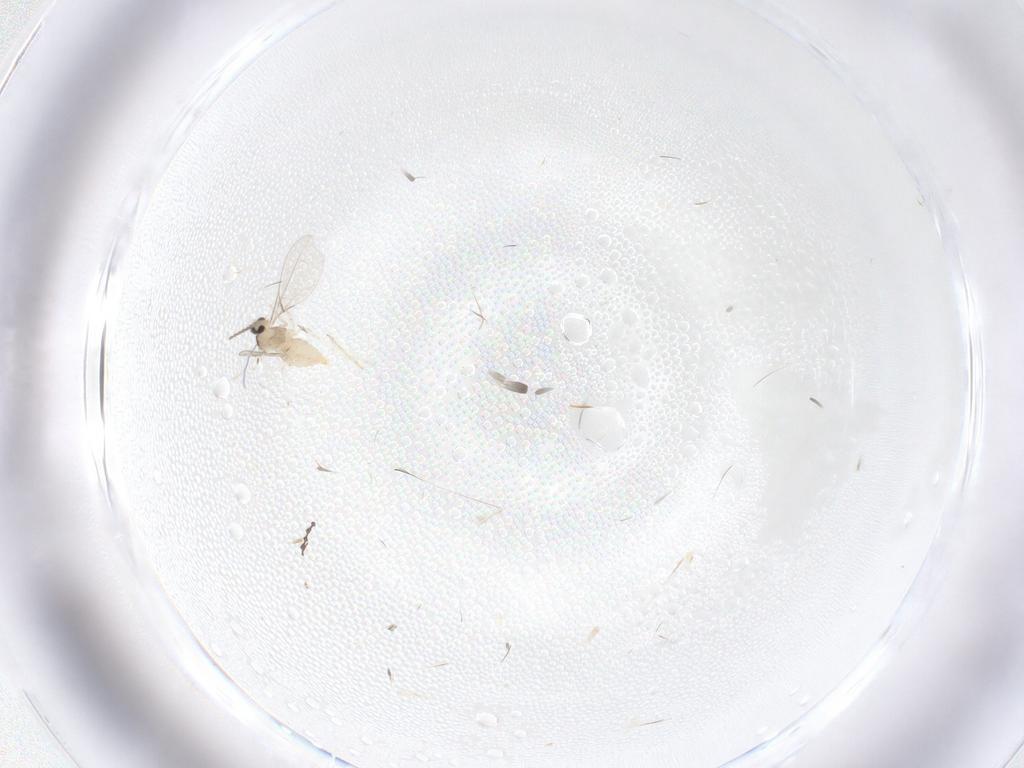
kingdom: Animalia
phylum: Arthropoda
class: Insecta
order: Diptera
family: Cecidomyiidae
